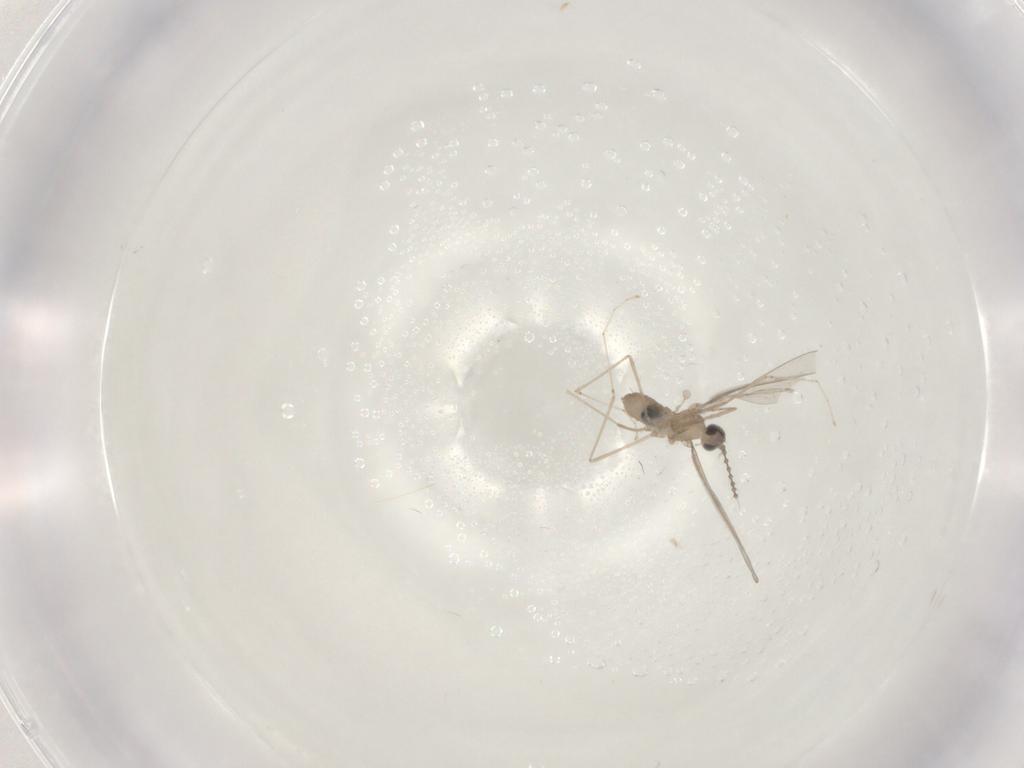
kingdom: Animalia
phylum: Arthropoda
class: Insecta
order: Diptera
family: Cecidomyiidae
